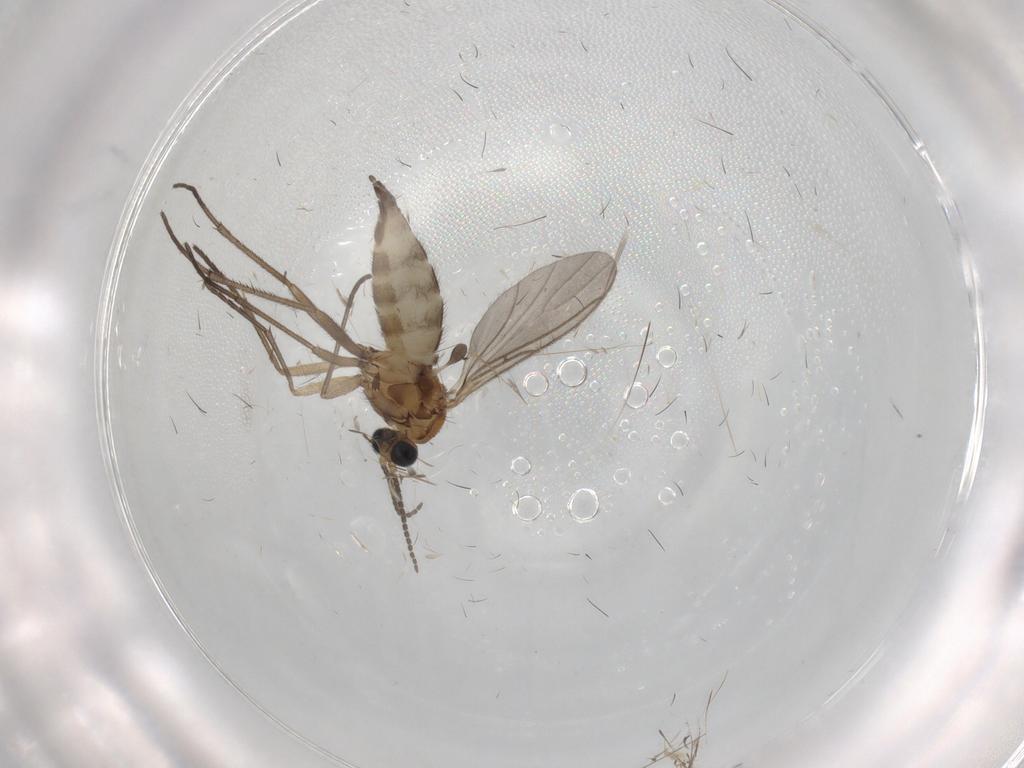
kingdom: Animalia
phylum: Arthropoda
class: Insecta
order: Diptera
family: Sciaridae
